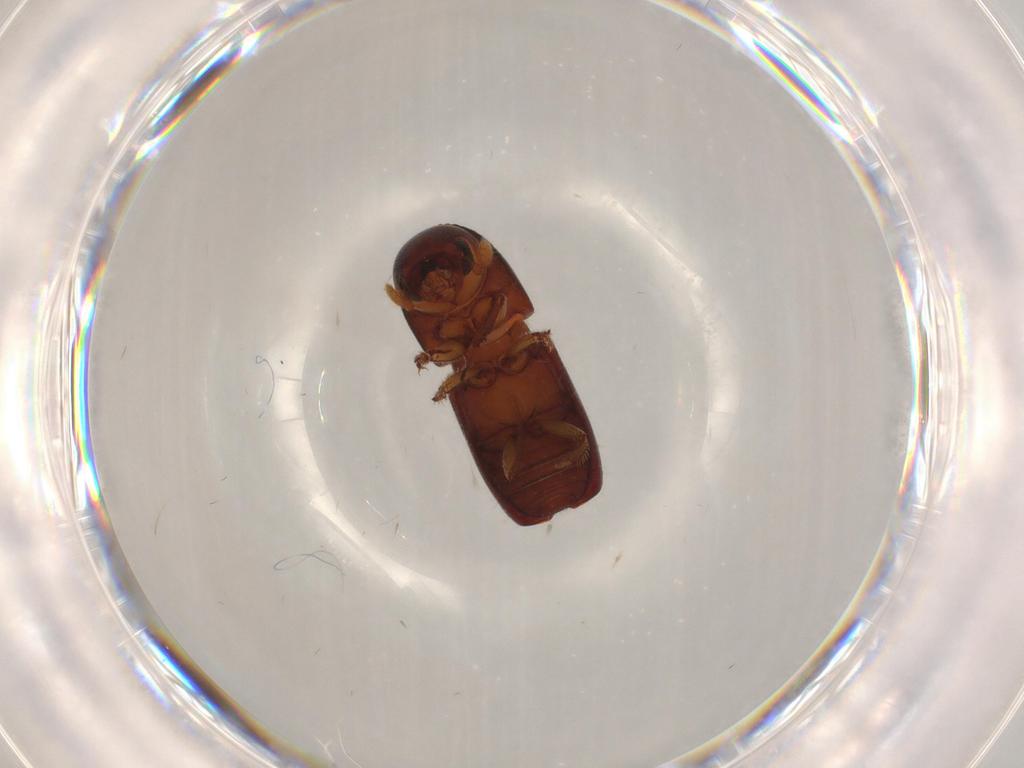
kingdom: Animalia
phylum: Arthropoda
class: Insecta
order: Coleoptera
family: Curculionidae
